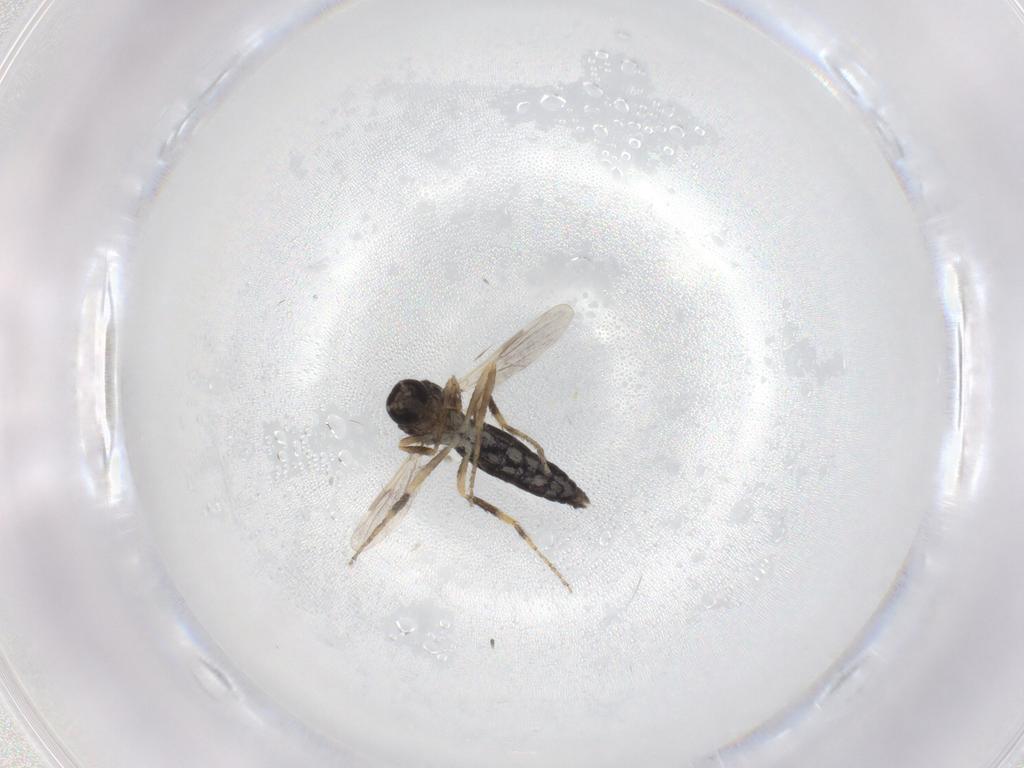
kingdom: Animalia
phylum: Arthropoda
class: Insecta
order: Diptera
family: Ceratopogonidae
